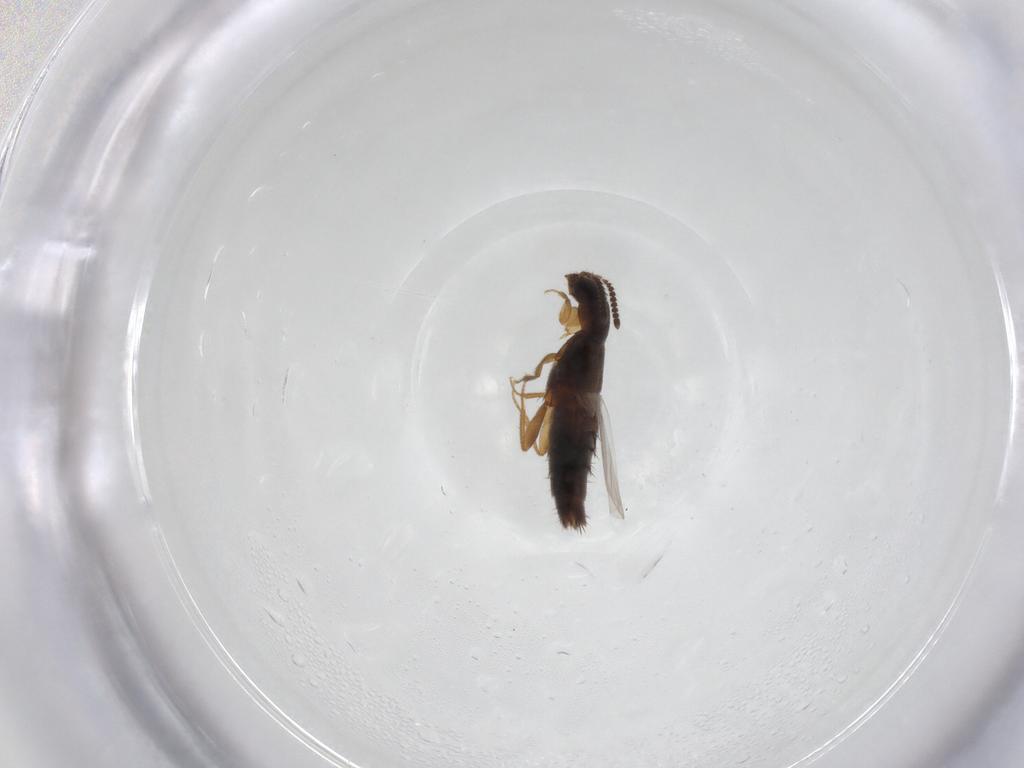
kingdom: Animalia
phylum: Arthropoda
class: Insecta
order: Coleoptera
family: Staphylinidae
